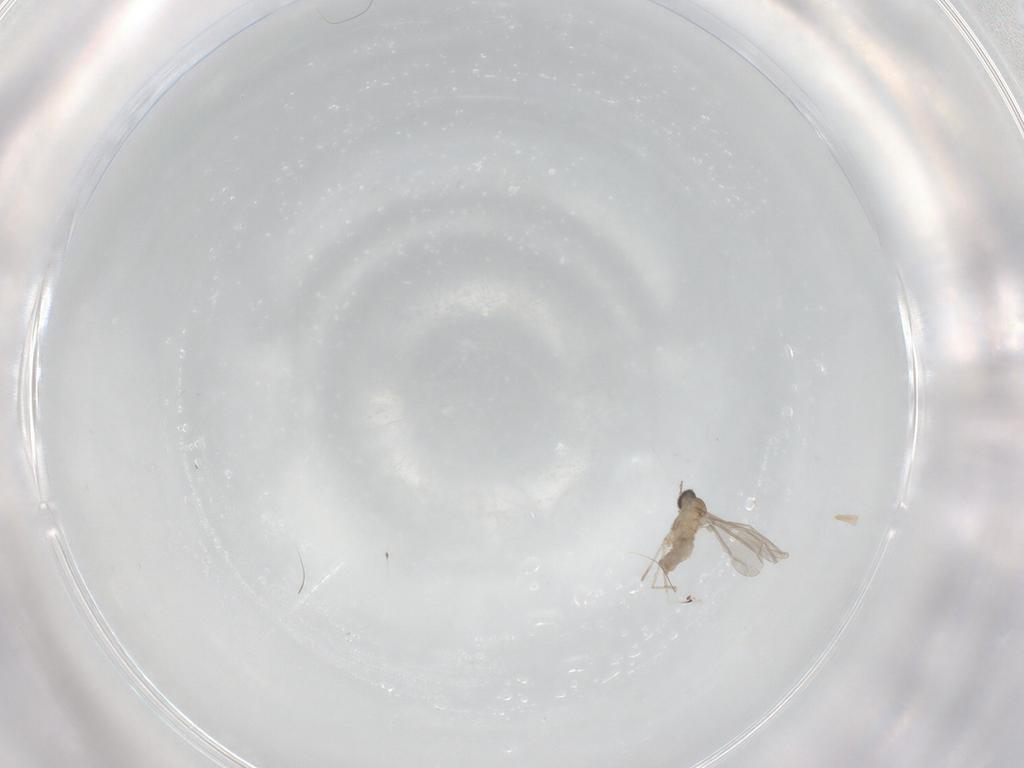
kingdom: Animalia
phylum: Arthropoda
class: Insecta
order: Diptera
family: Cecidomyiidae
